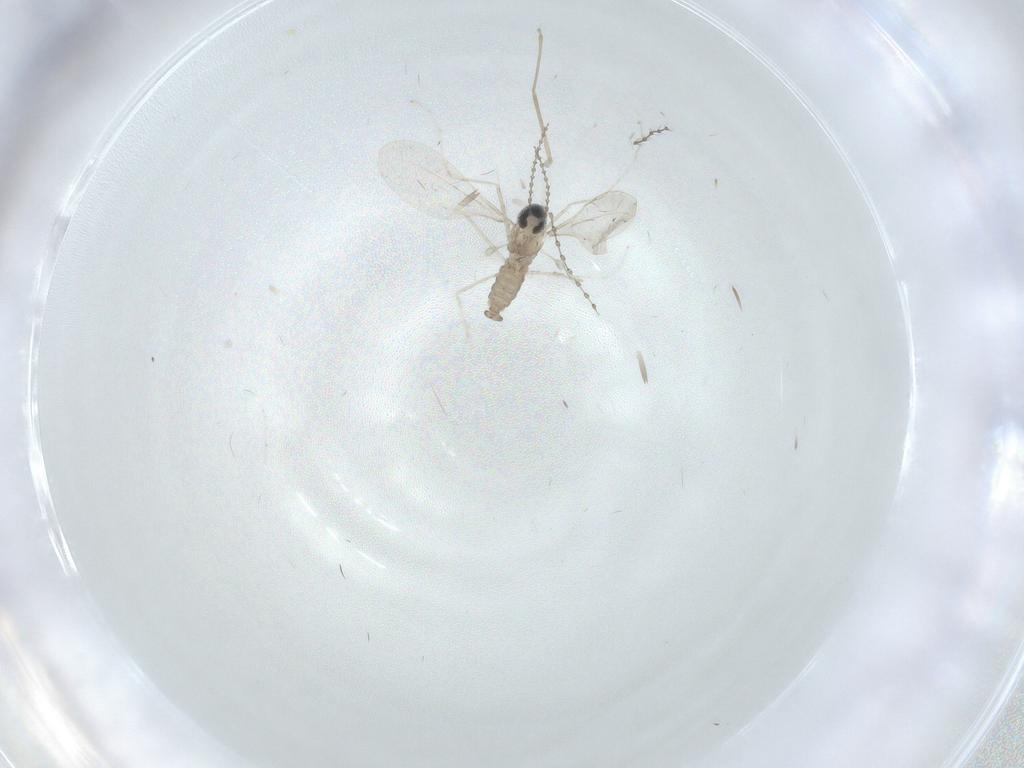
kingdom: Animalia
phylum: Arthropoda
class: Insecta
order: Diptera
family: Cecidomyiidae
